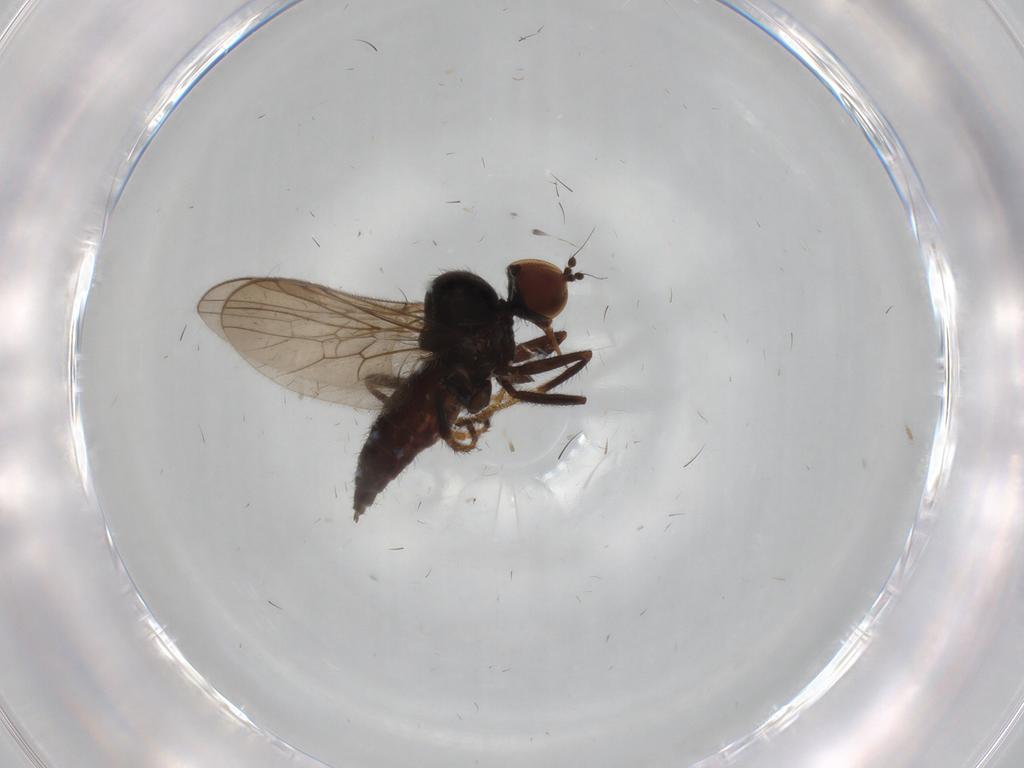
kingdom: Animalia
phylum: Arthropoda
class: Insecta
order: Diptera
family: Hybotidae
